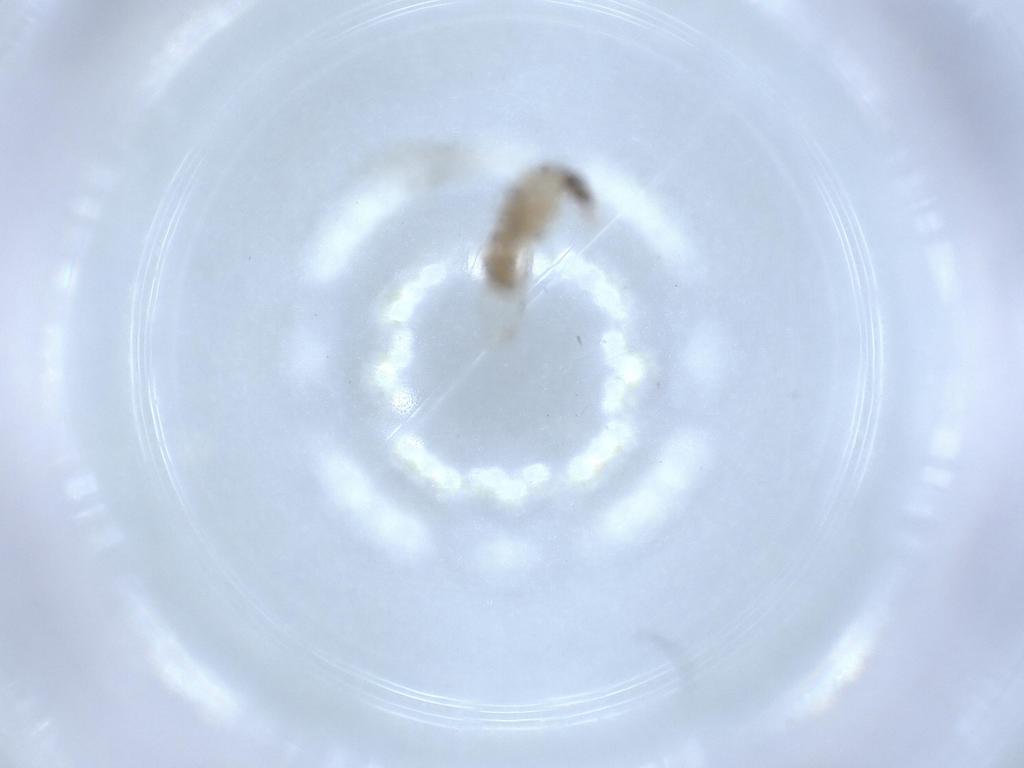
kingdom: Animalia
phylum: Arthropoda
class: Insecta
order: Diptera
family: Psychodidae
